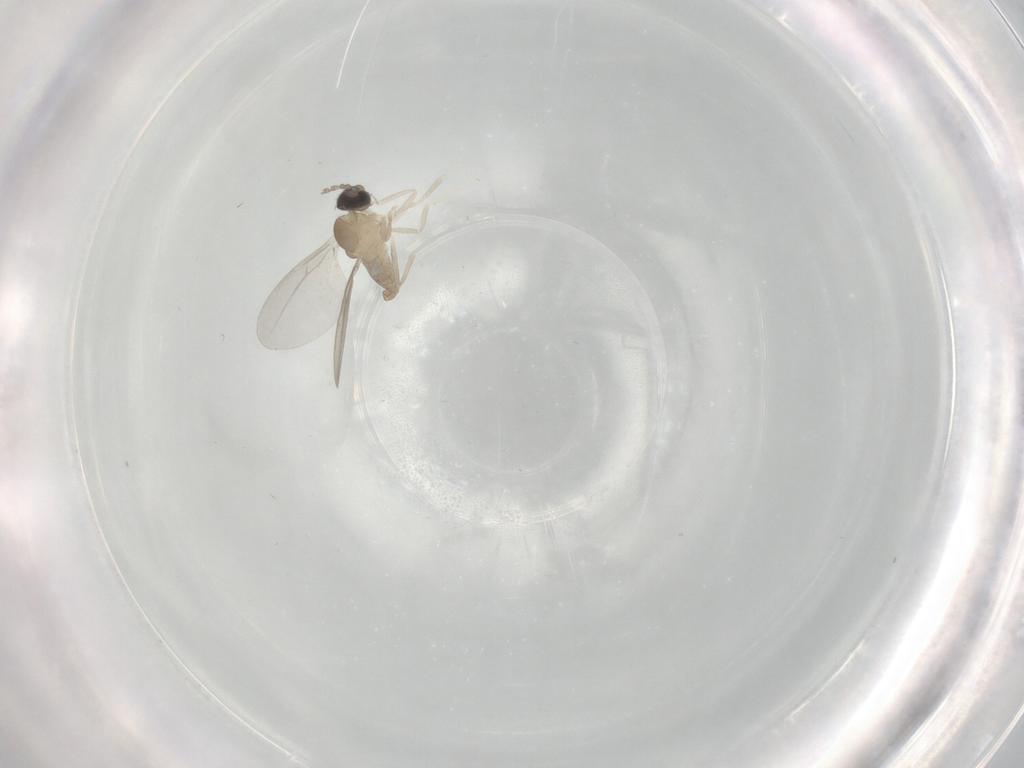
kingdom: Animalia
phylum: Arthropoda
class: Insecta
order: Diptera
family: Cecidomyiidae
